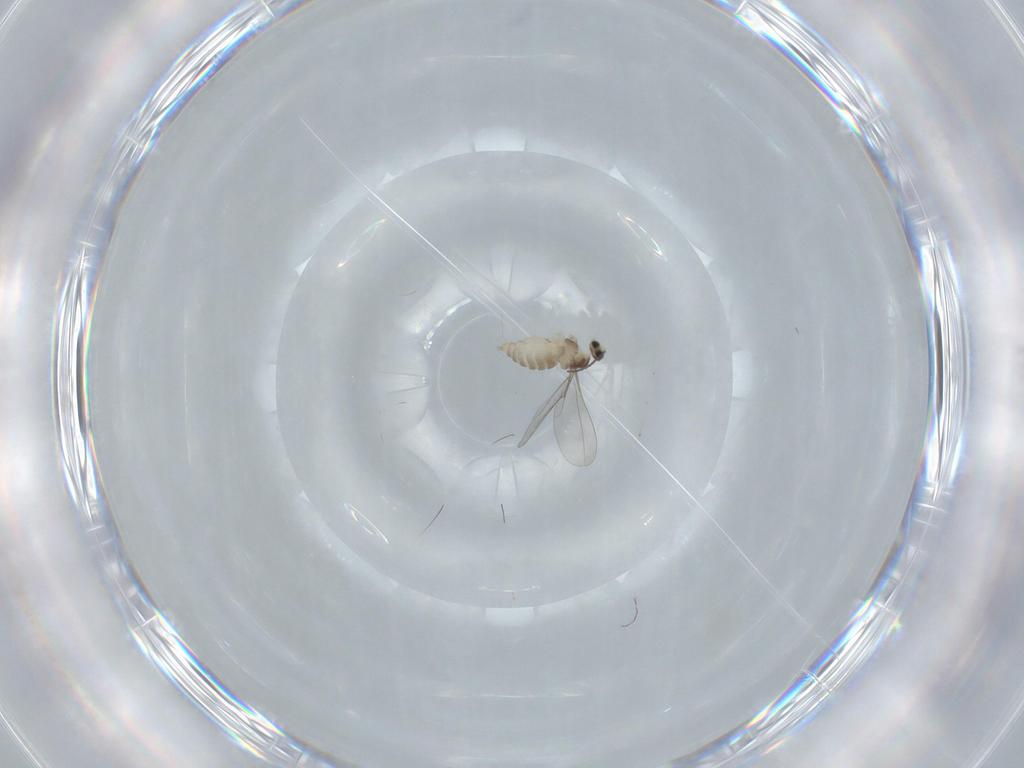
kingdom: Animalia
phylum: Arthropoda
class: Insecta
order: Diptera
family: Cecidomyiidae
